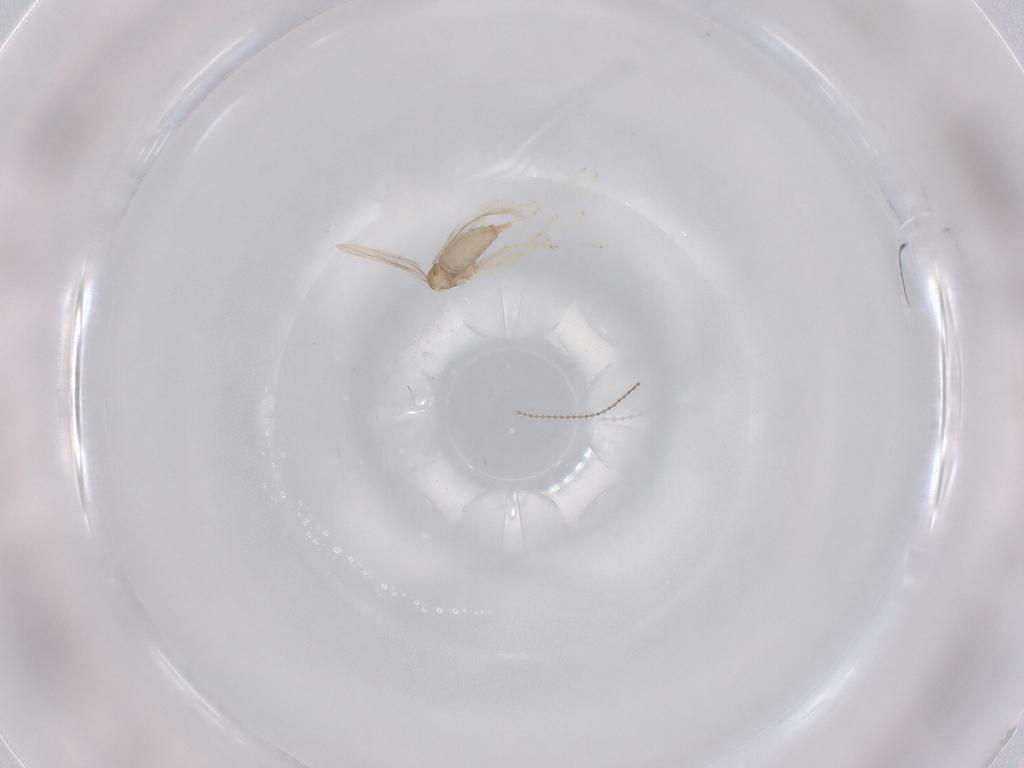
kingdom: Animalia
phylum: Arthropoda
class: Insecta
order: Diptera
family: Cecidomyiidae
